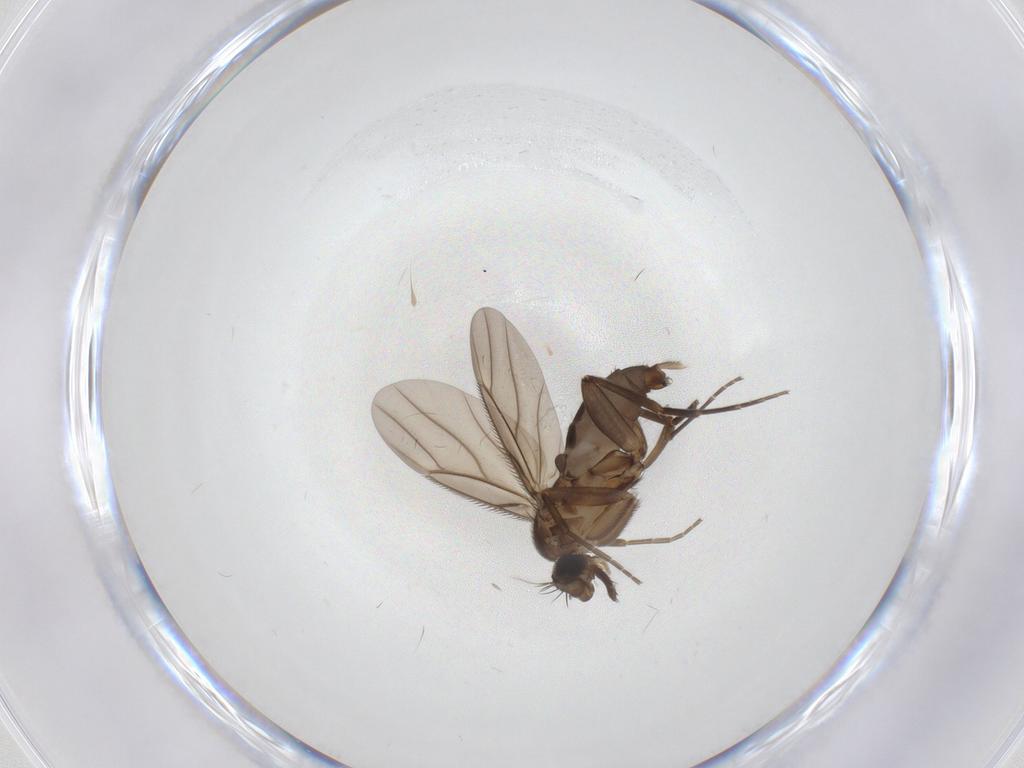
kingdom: Animalia
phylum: Arthropoda
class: Insecta
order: Diptera
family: Phoridae
